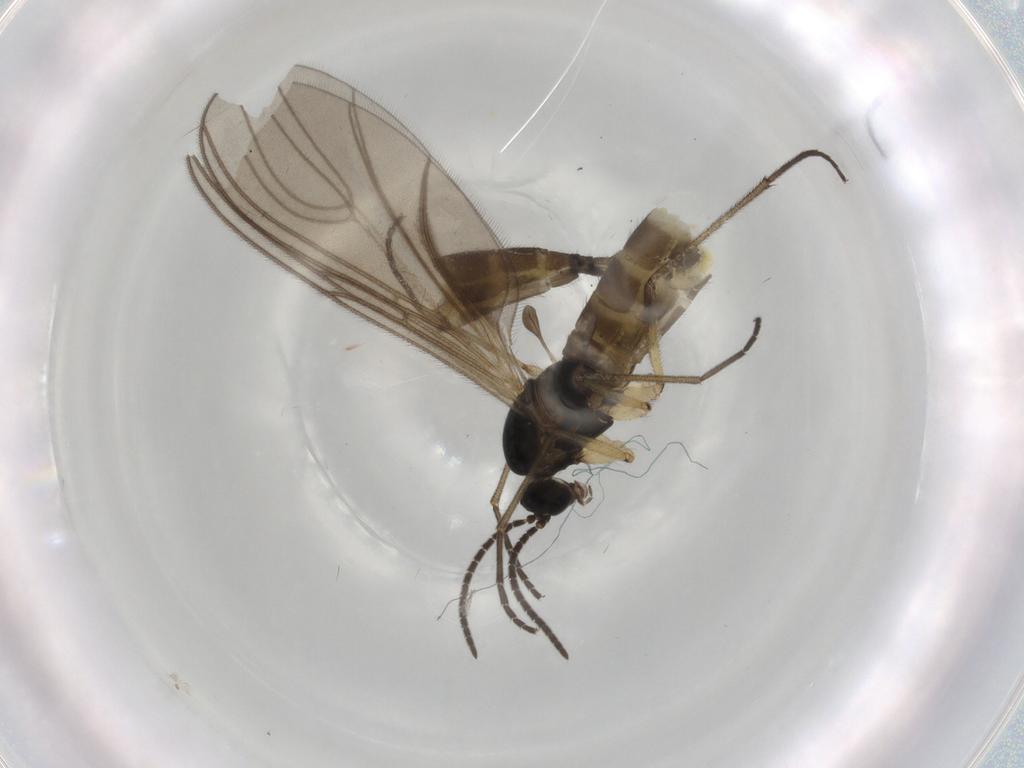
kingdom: Animalia
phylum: Arthropoda
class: Insecta
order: Diptera
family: Sciaridae
